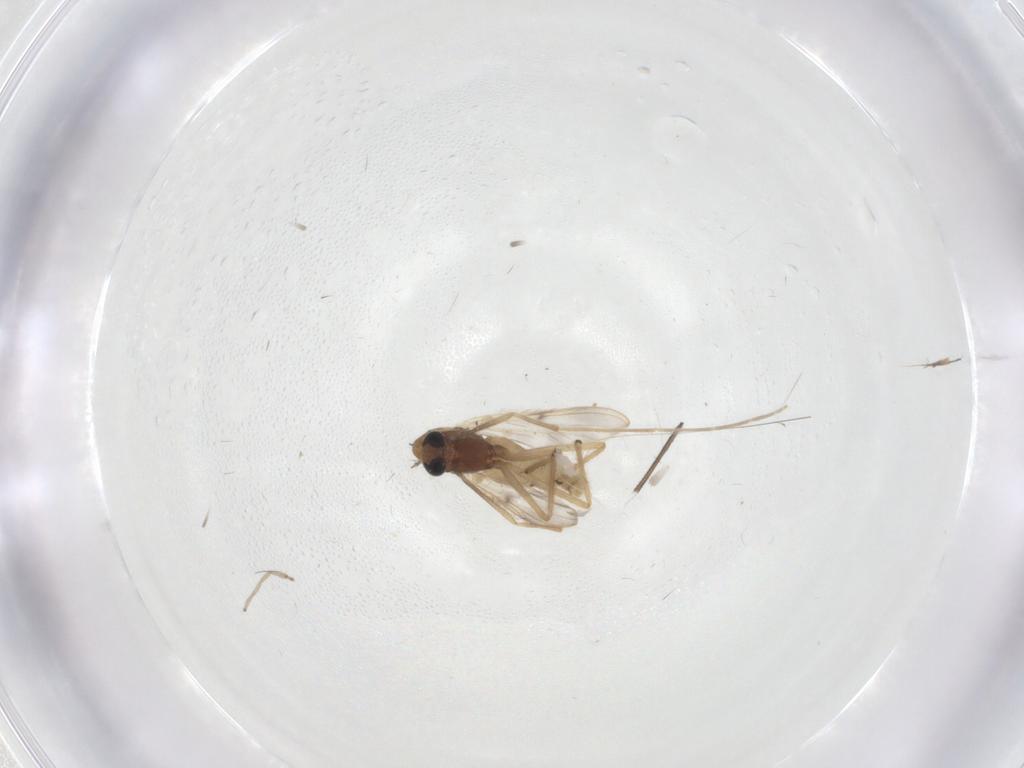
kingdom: Animalia
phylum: Arthropoda
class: Insecta
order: Diptera
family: Chironomidae
